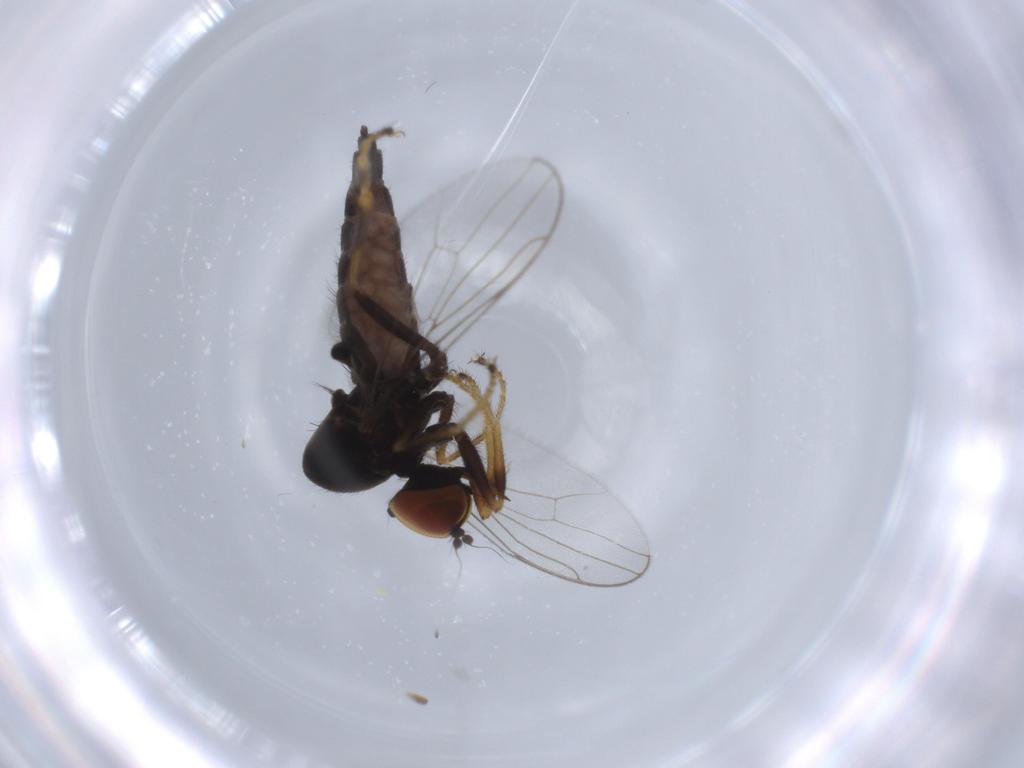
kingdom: Animalia
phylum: Arthropoda
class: Insecta
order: Diptera
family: Hybotidae
